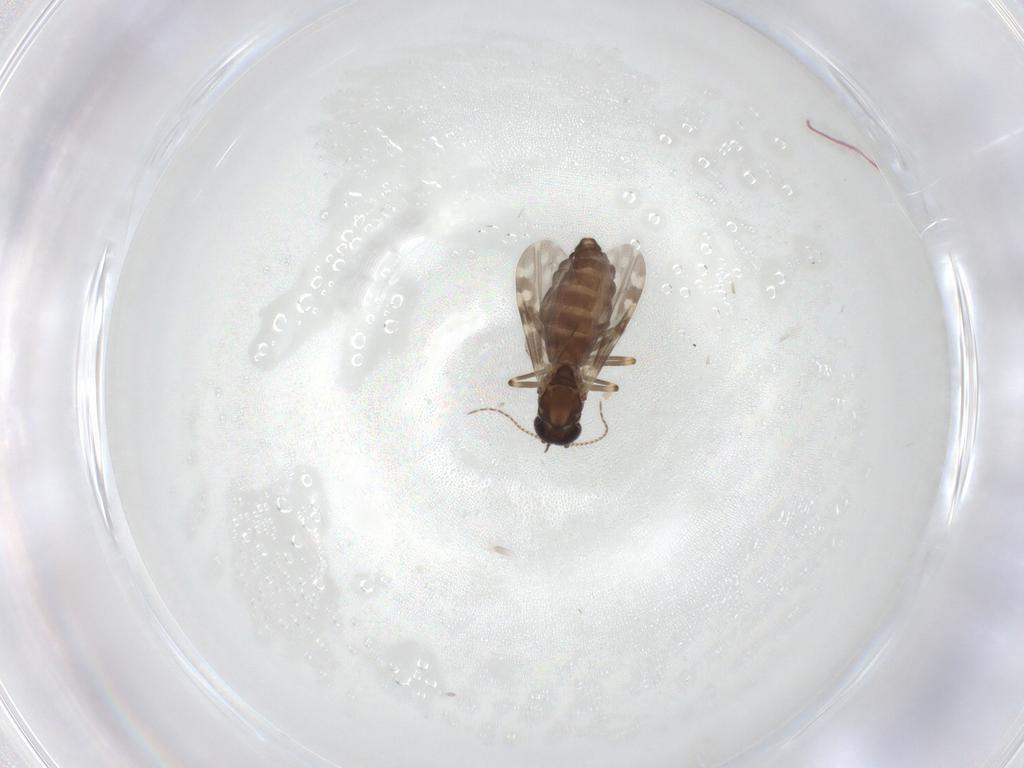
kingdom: Animalia
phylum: Arthropoda
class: Insecta
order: Diptera
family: Ceratopogonidae
